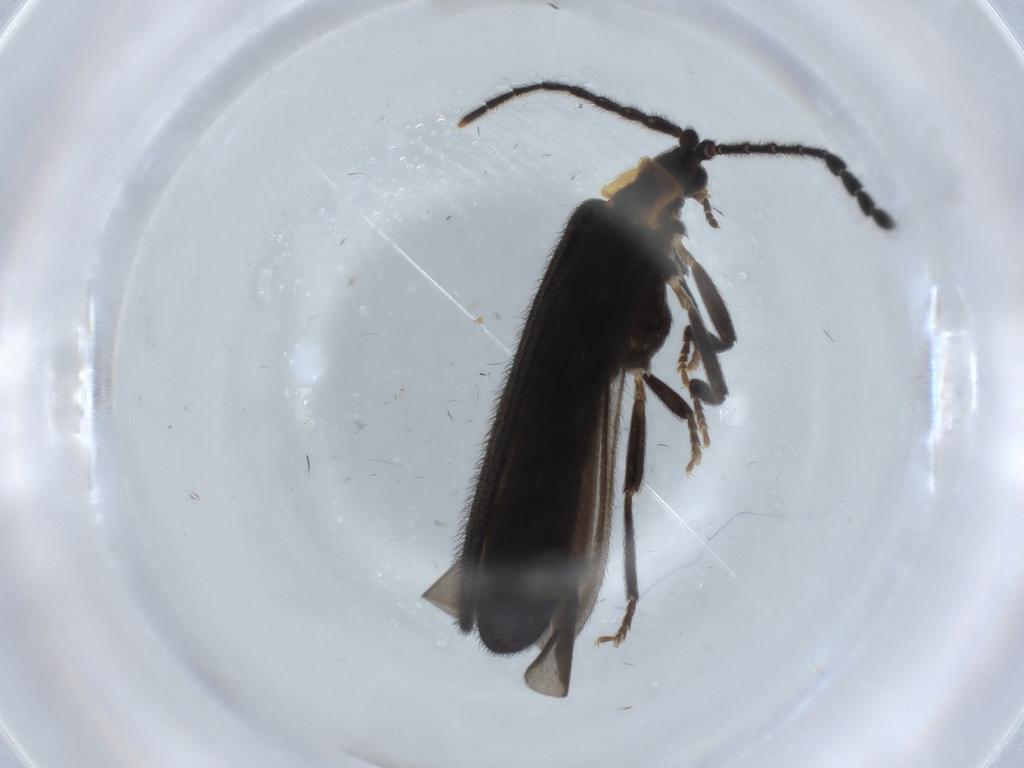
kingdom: Animalia
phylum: Arthropoda
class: Insecta
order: Coleoptera
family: Lycidae
